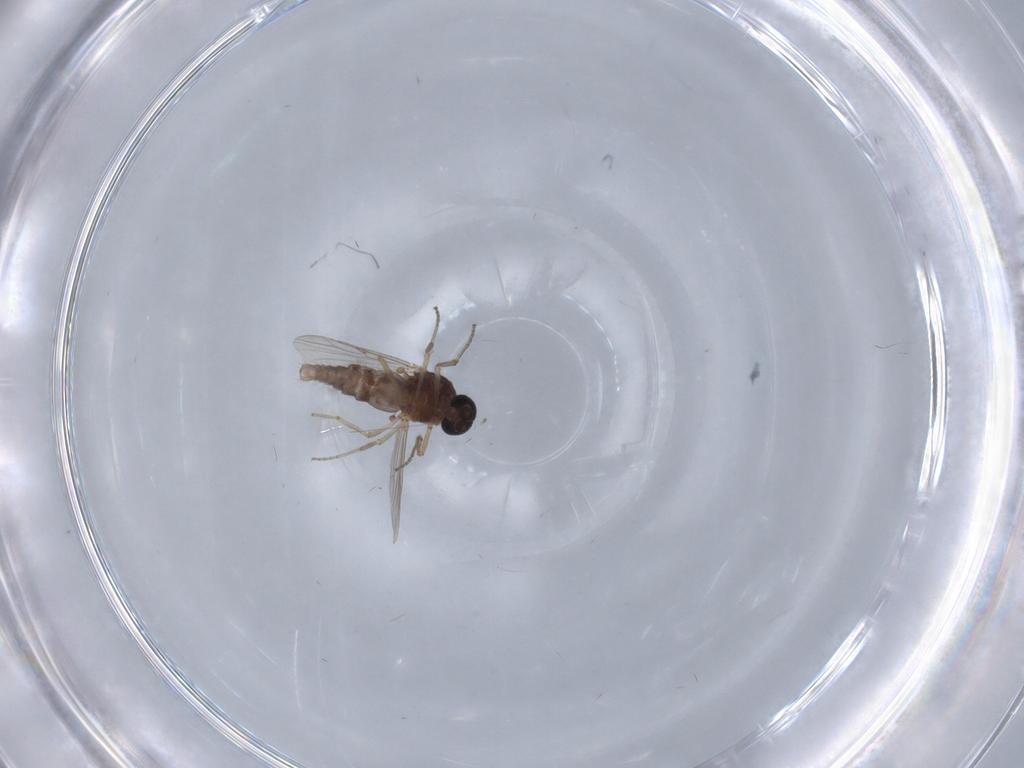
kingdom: Animalia
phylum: Arthropoda
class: Insecta
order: Diptera
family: Ceratopogonidae
